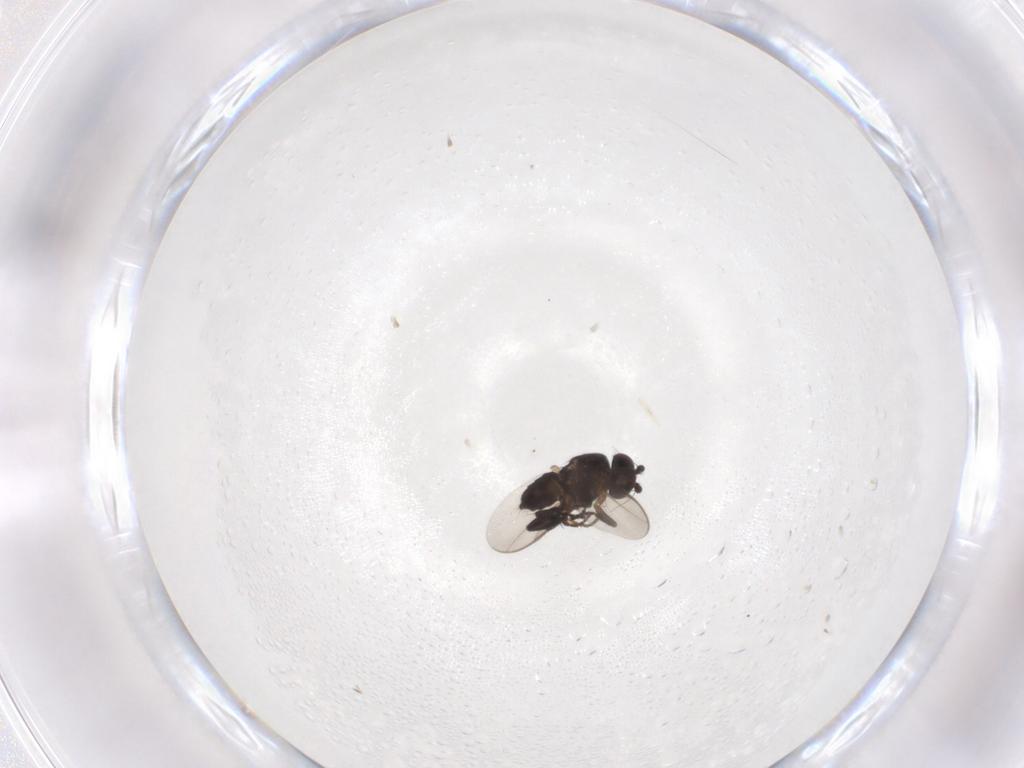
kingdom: Animalia
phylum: Arthropoda
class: Insecta
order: Diptera
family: Sphaeroceridae
